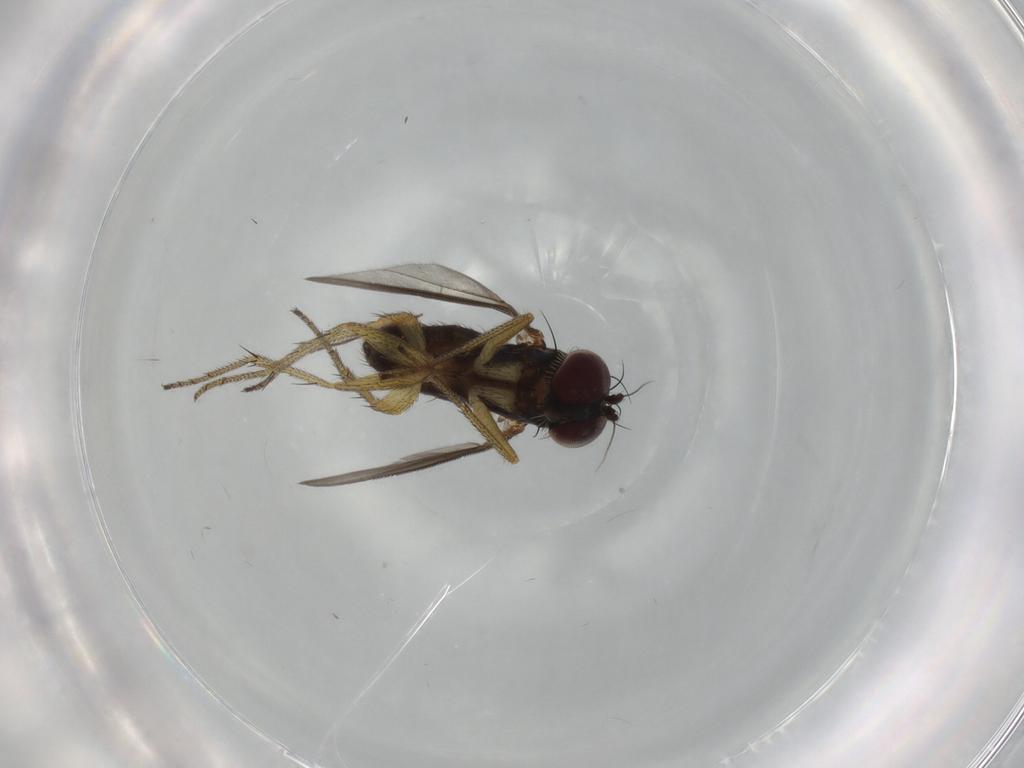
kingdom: Animalia
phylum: Arthropoda
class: Insecta
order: Diptera
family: Dolichopodidae
